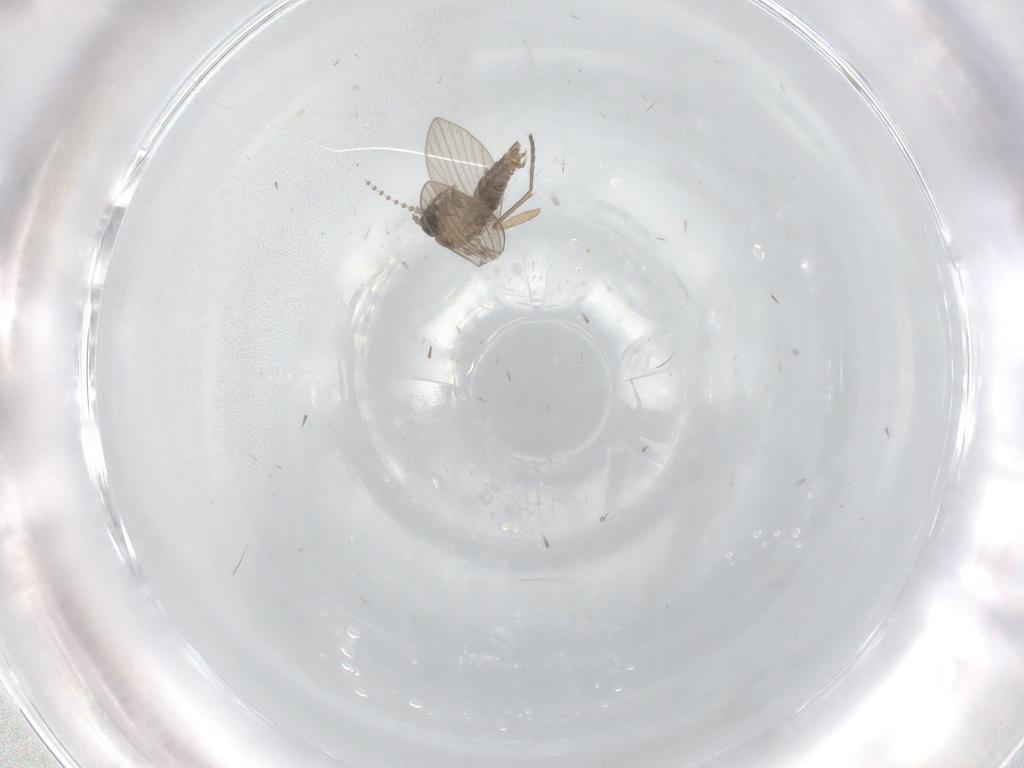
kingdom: Animalia
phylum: Arthropoda
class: Insecta
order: Diptera
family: Psychodidae
